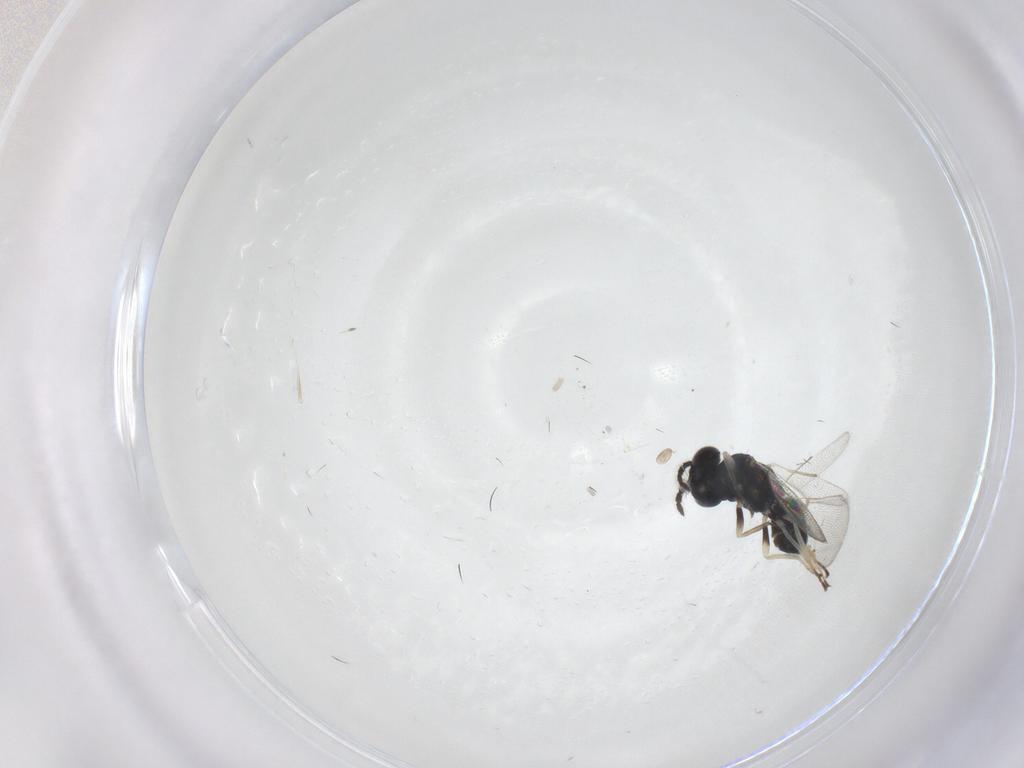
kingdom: Animalia
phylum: Arthropoda
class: Insecta
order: Hymenoptera
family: Eulophidae
